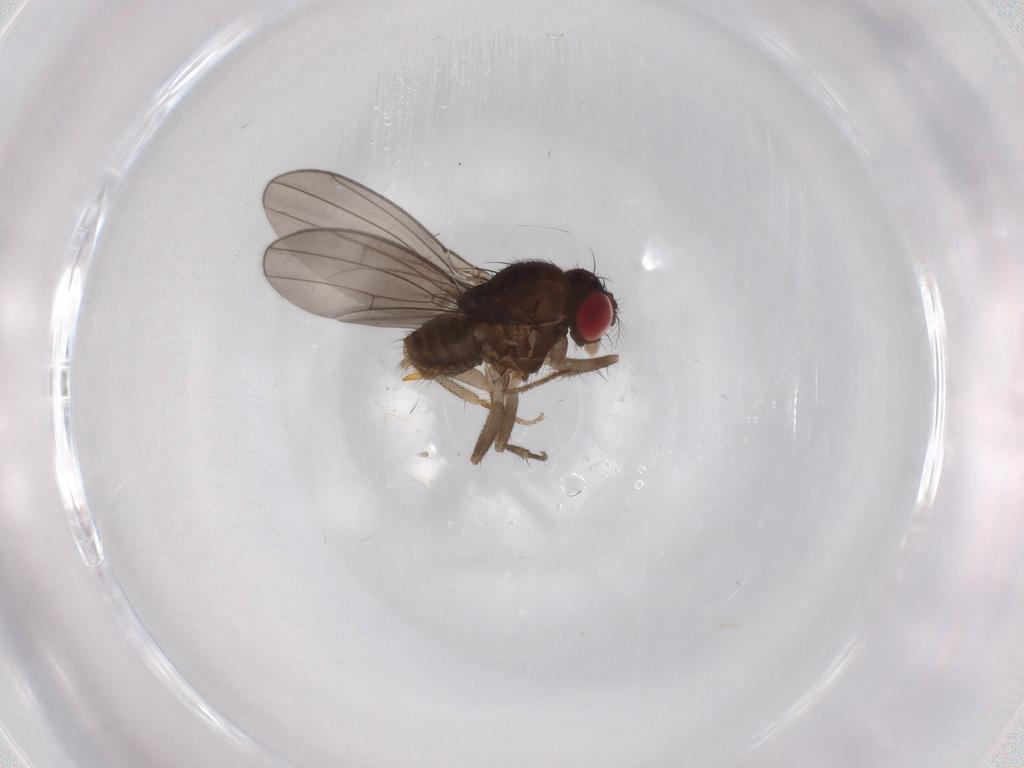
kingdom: Animalia
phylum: Arthropoda
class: Insecta
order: Diptera
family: Drosophilidae
